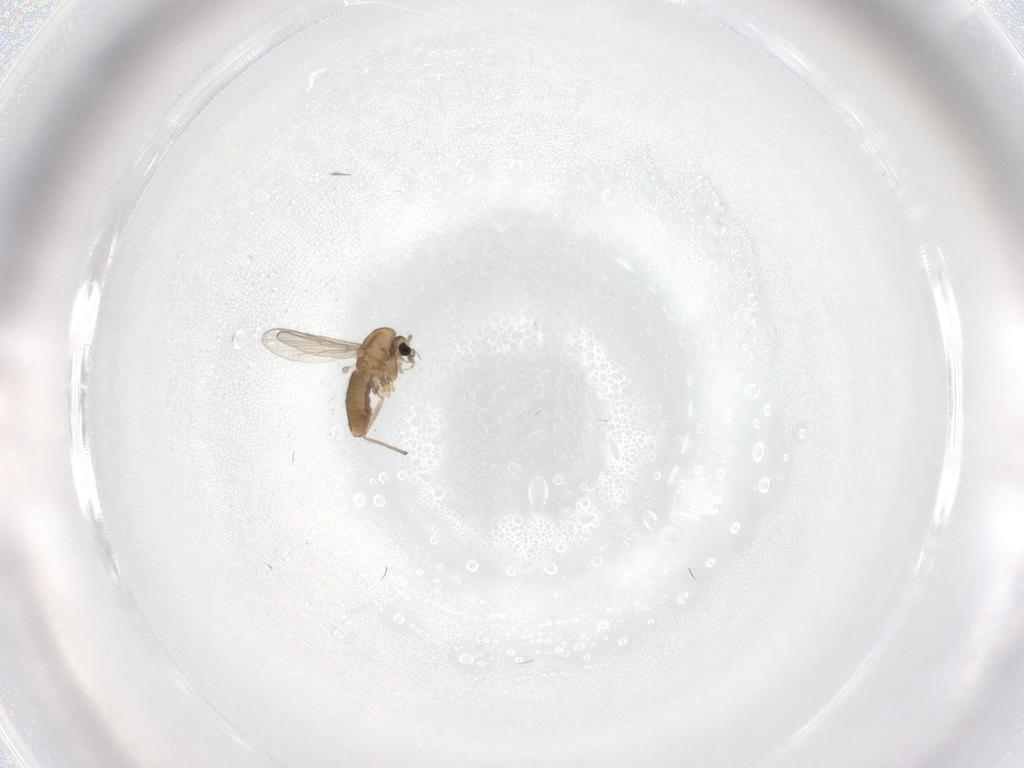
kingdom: Animalia
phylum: Arthropoda
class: Insecta
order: Diptera
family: Chironomidae
